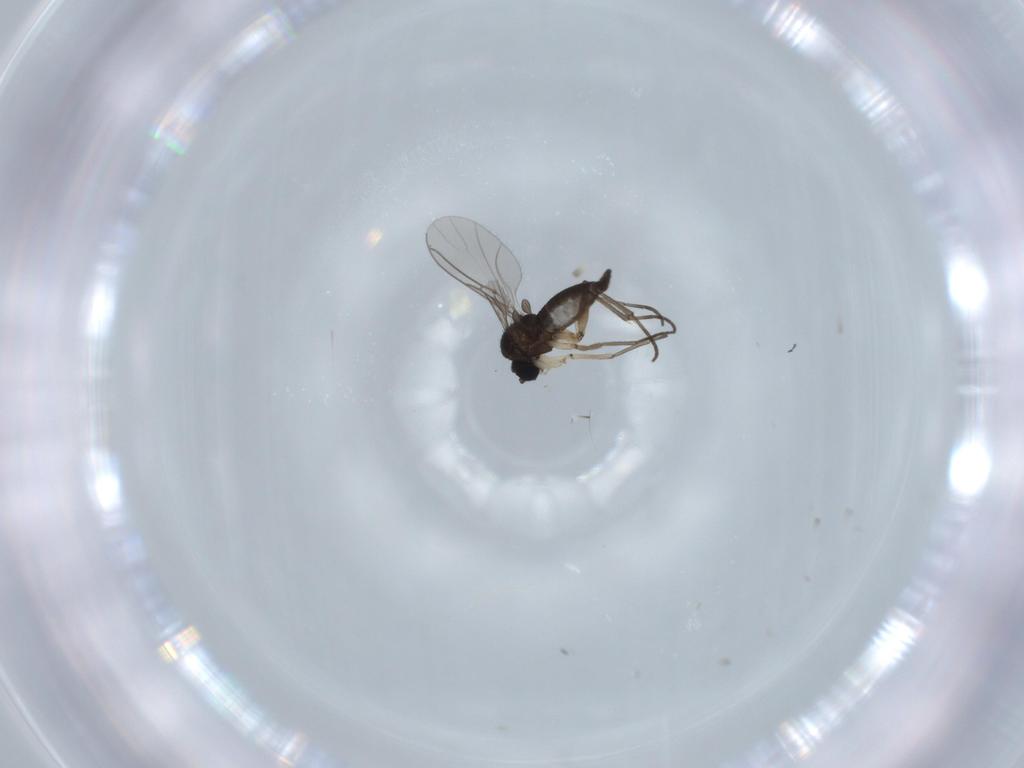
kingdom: Animalia
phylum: Arthropoda
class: Insecta
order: Diptera
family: Sciaridae
